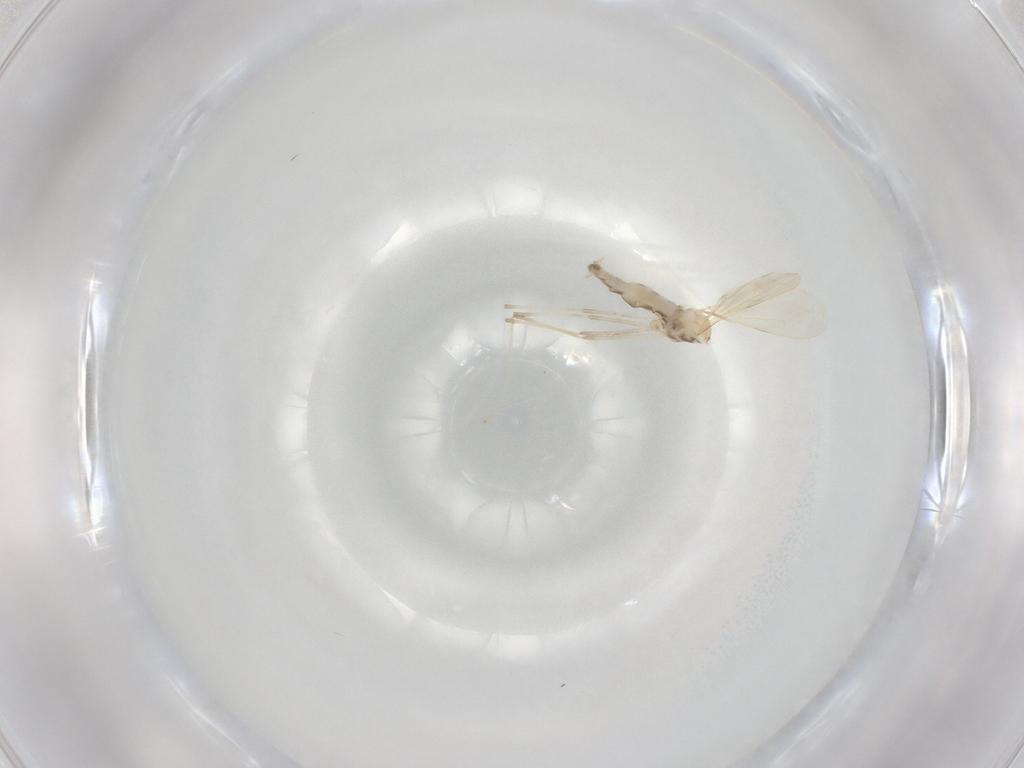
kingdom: Animalia
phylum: Arthropoda
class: Insecta
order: Diptera
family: Cecidomyiidae
